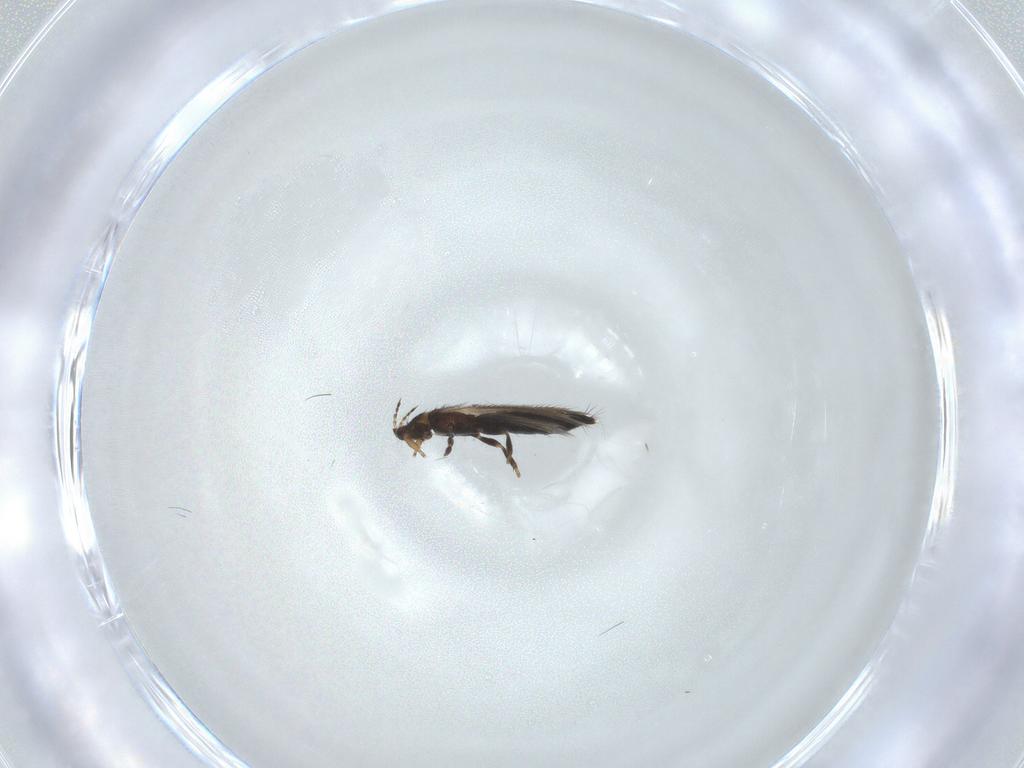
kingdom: Animalia
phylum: Arthropoda
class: Insecta
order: Thysanoptera
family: Thripidae
